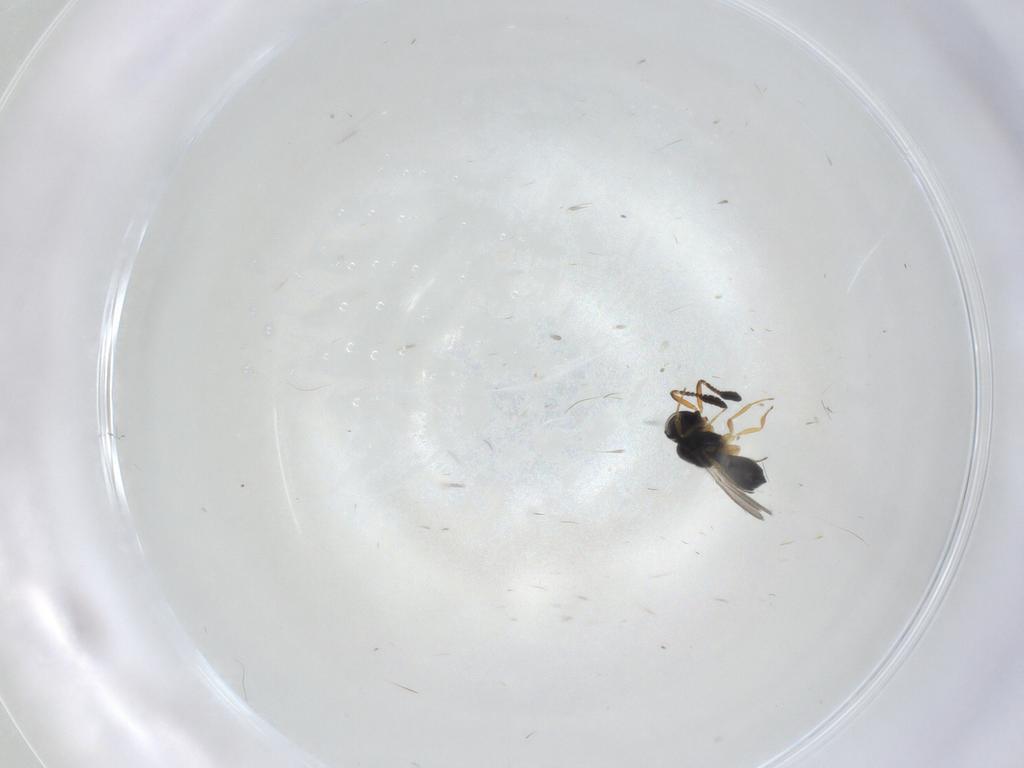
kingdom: Animalia
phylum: Arthropoda
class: Insecta
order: Hymenoptera
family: Scelionidae
